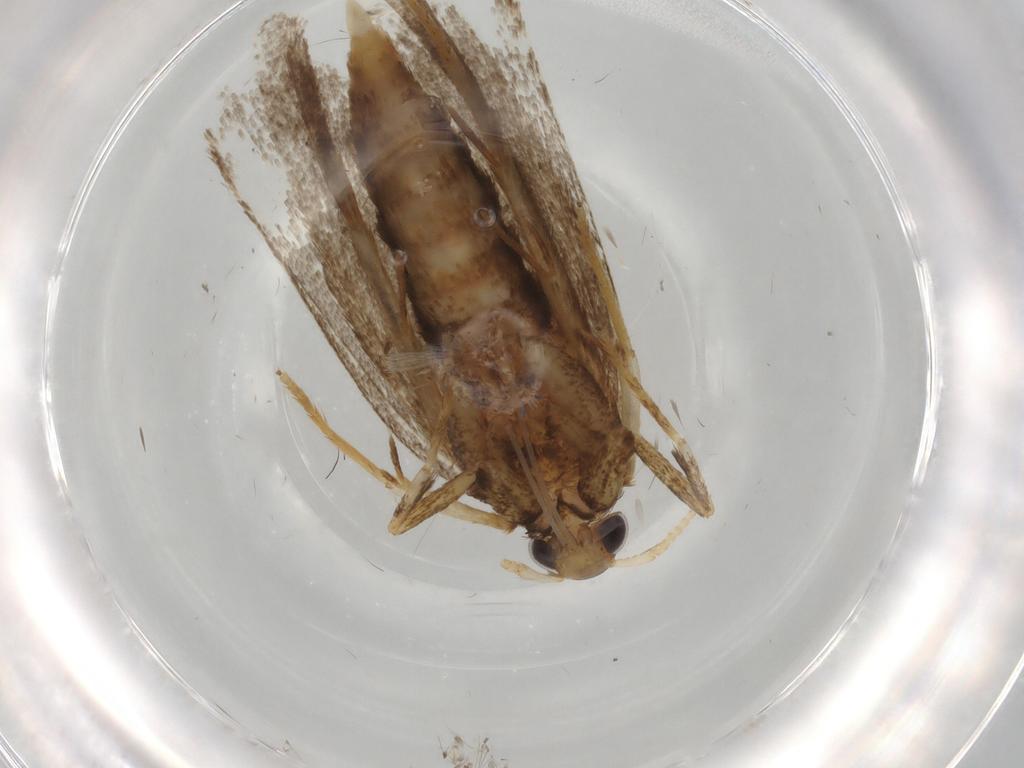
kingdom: Animalia
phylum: Arthropoda
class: Insecta
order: Lepidoptera
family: Lecithoceridae
